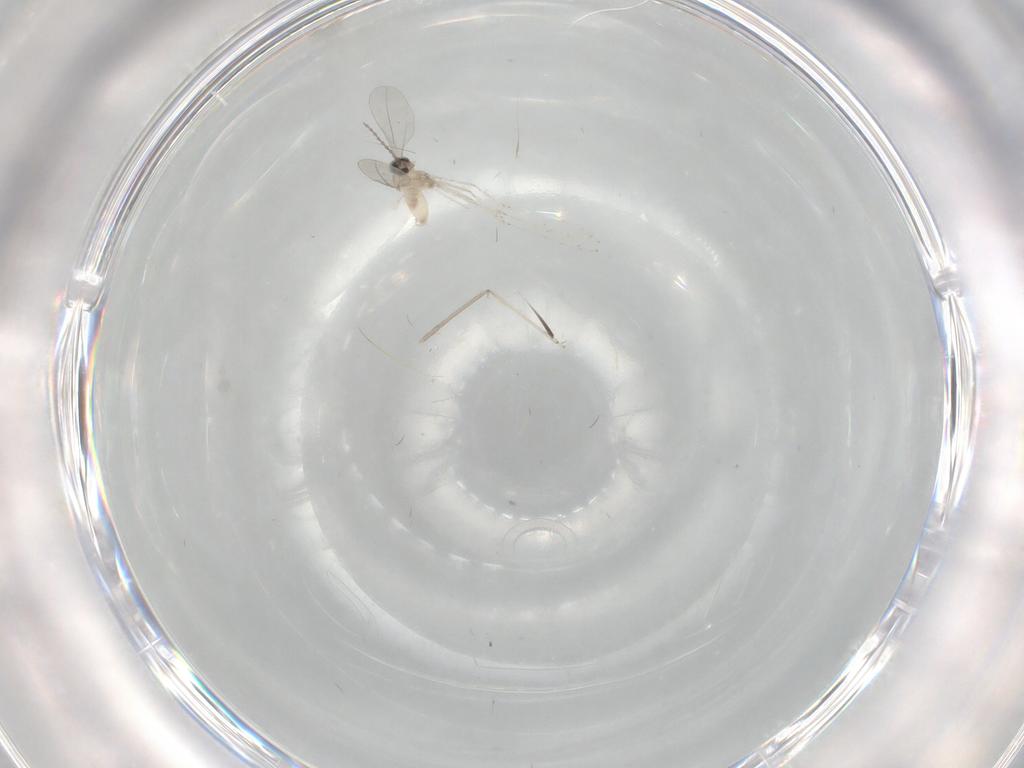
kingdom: Animalia
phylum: Arthropoda
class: Insecta
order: Diptera
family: Cecidomyiidae
